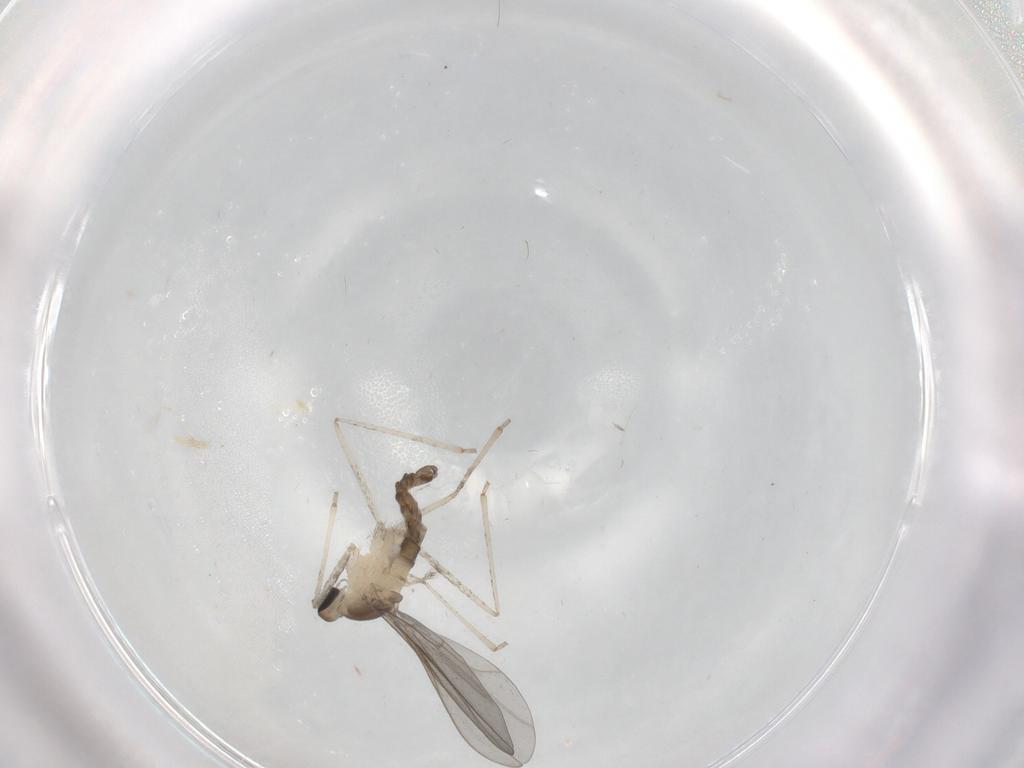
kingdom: Animalia
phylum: Arthropoda
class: Insecta
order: Diptera
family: Cecidomyiidae
